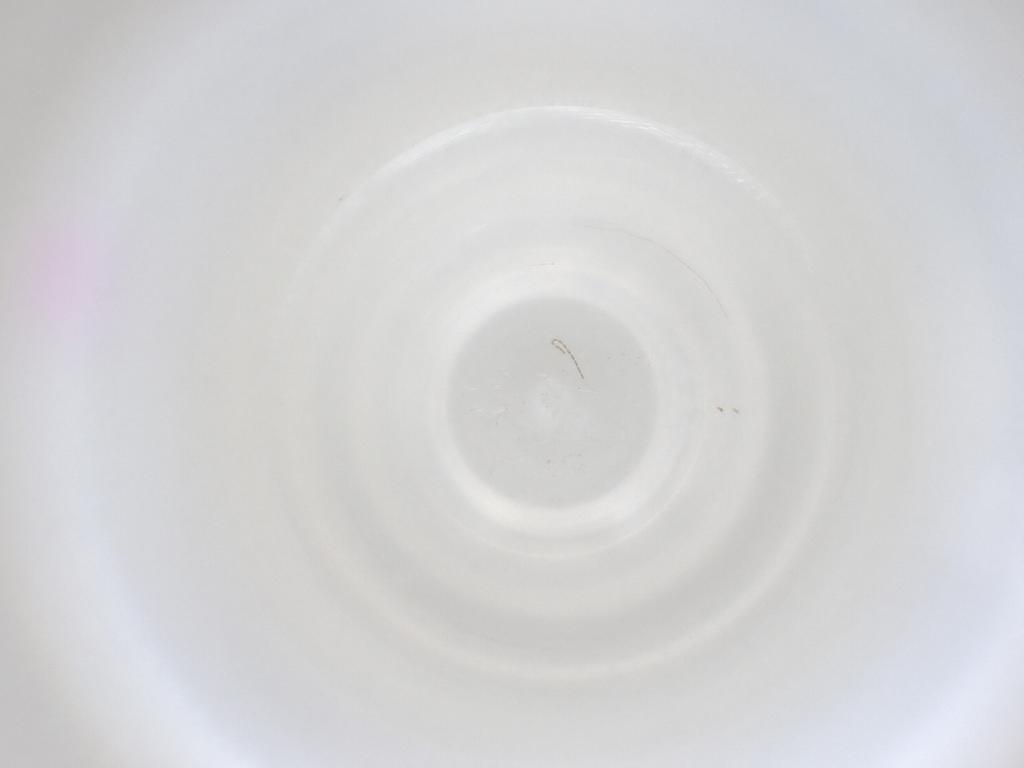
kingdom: Animalia
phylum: Arthropoda
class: Insecta
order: Diptera
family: Cecidomyiidae
